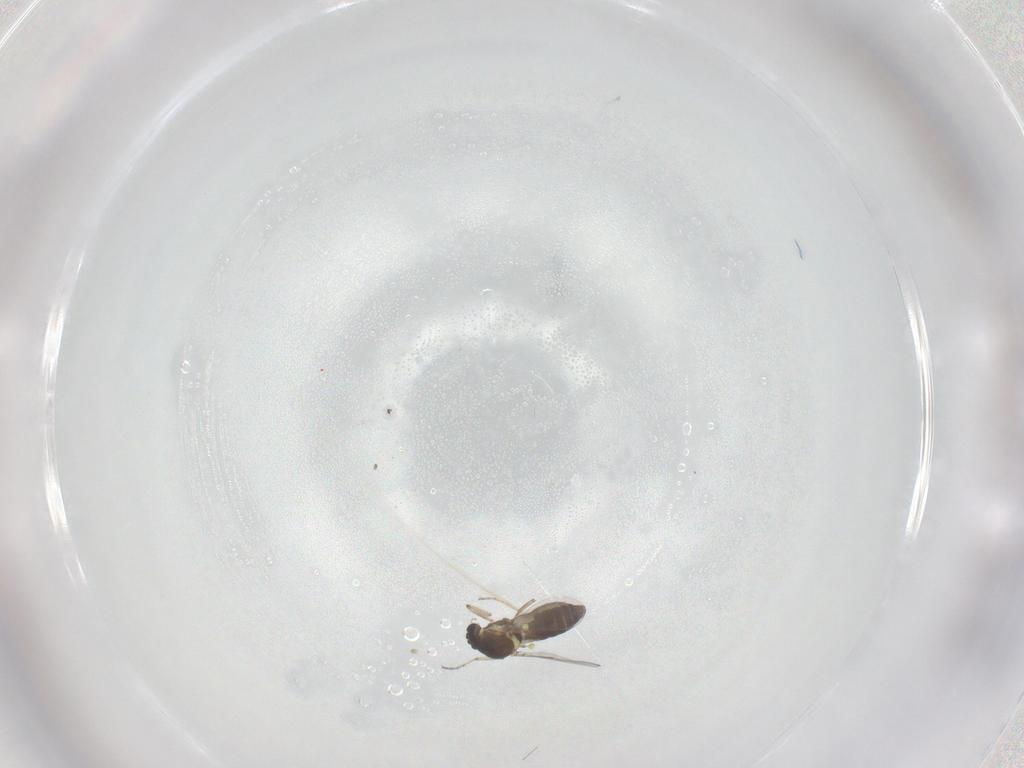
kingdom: Animalia
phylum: Arthropoda
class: Insecta
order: Diptera
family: Ceratopogonidae
